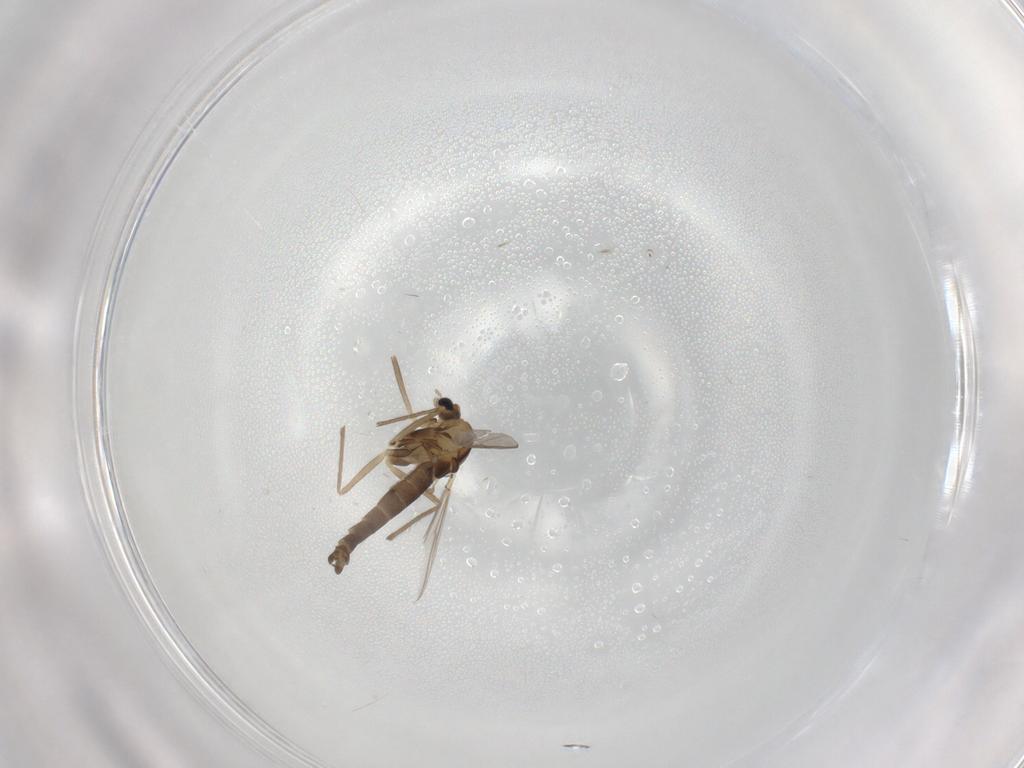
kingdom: Animalia
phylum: Arthropoda
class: Insecta
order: Diptera
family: Chironomidae
